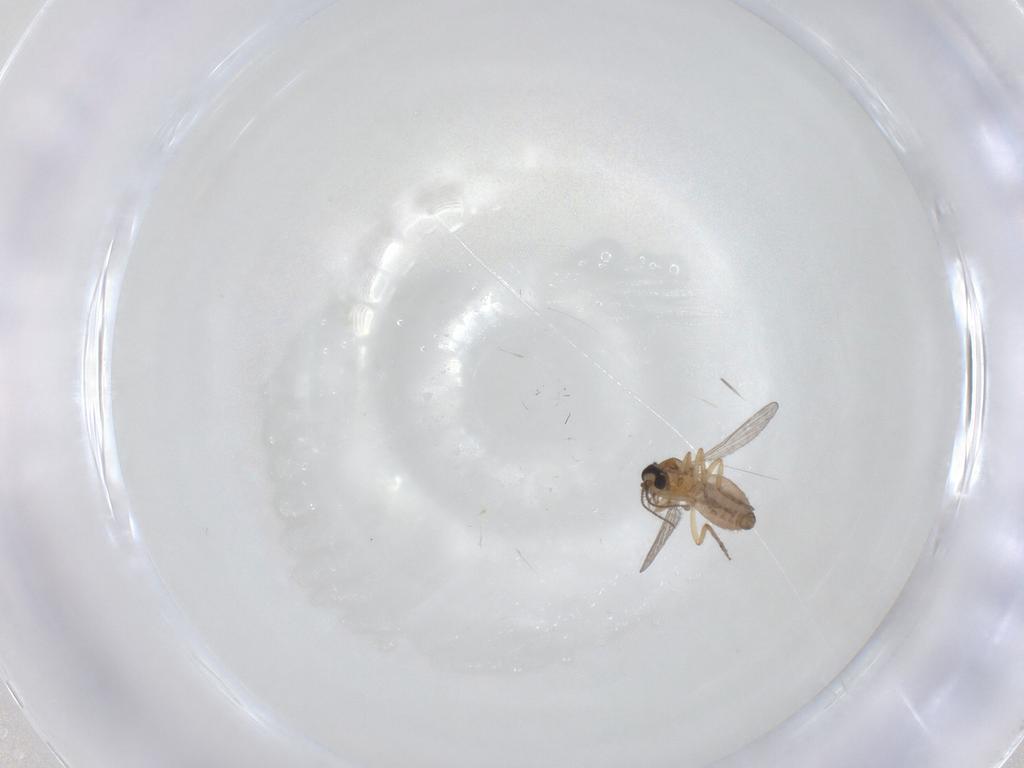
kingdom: Animalia
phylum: Arthropoda
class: Insecta
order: Diptera
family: Ceratopogonidae
